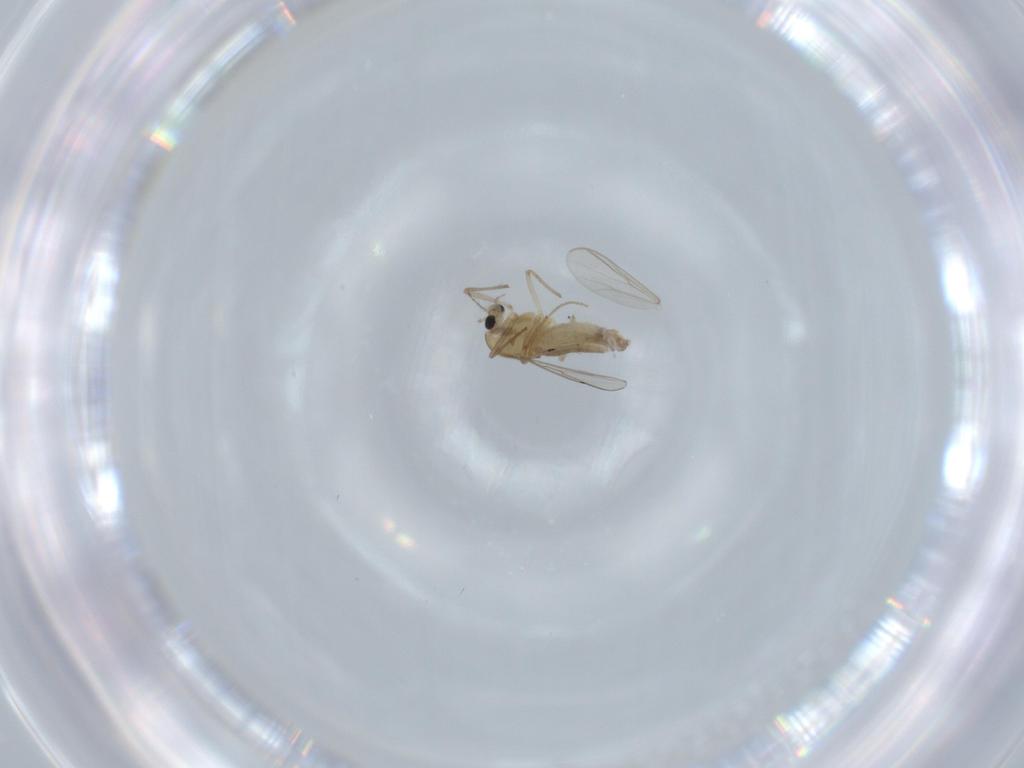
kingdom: Animalia
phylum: Arthropoda
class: Insecta
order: Diptera
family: Chironomidae
